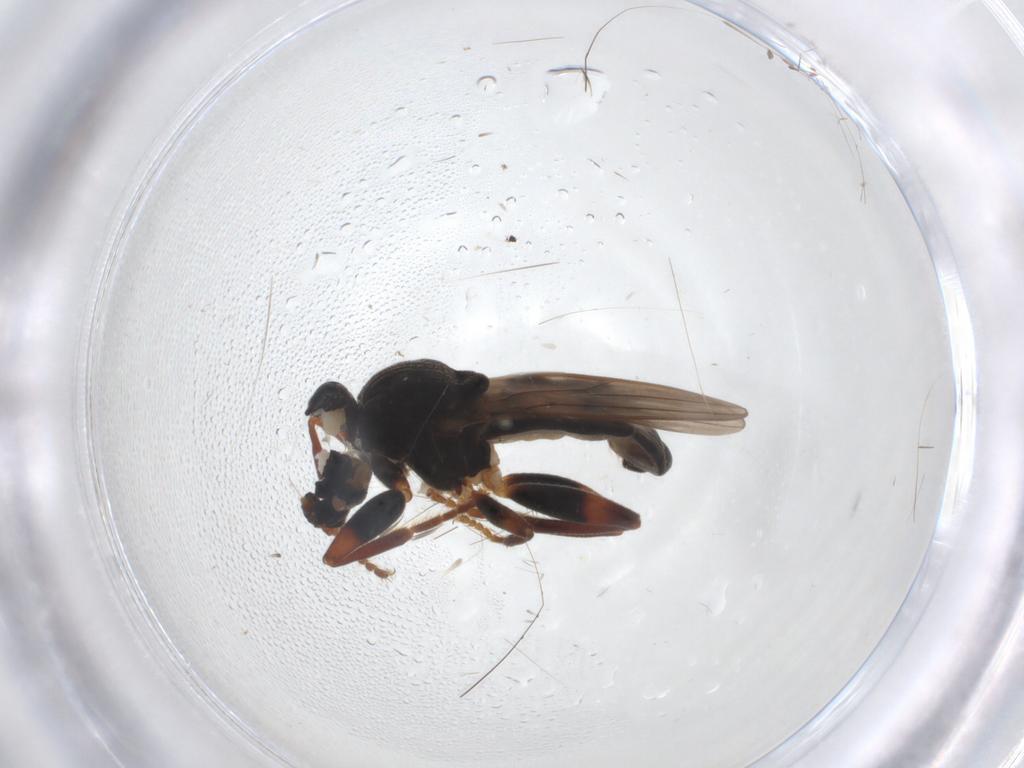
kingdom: Animalia
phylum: Arthropoda
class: Insecta
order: Diptera
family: Sphaeroceridae
